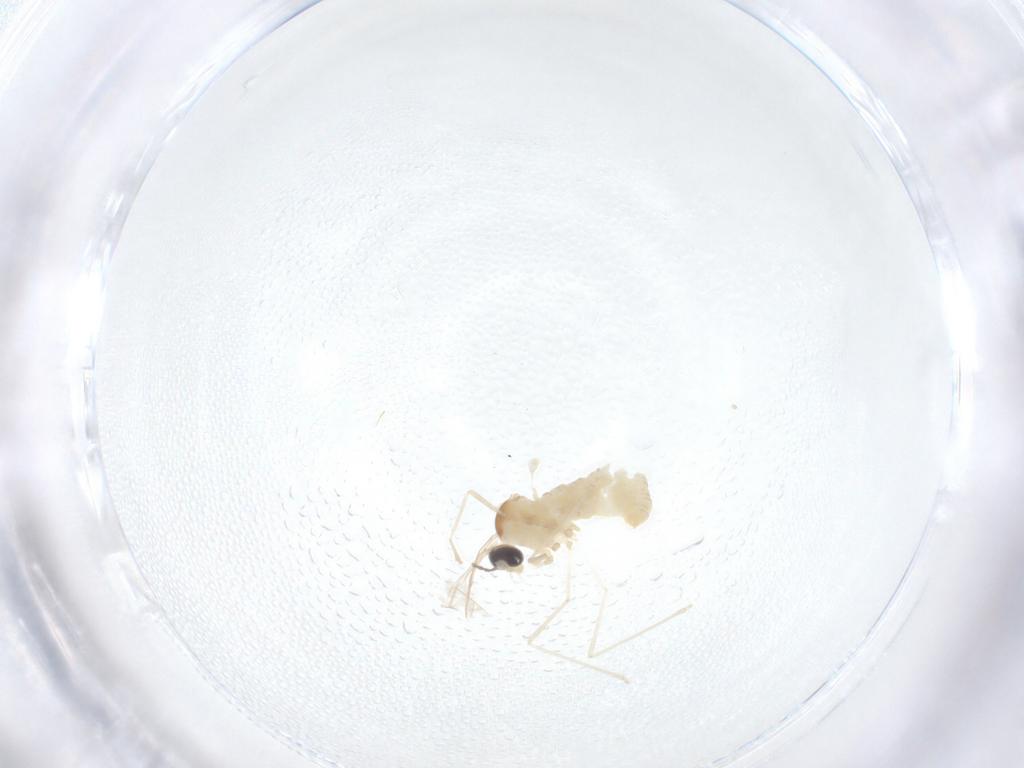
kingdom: Animalia
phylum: Arthropoda
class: Insecta
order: Diptera
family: Cecidomyiidae
